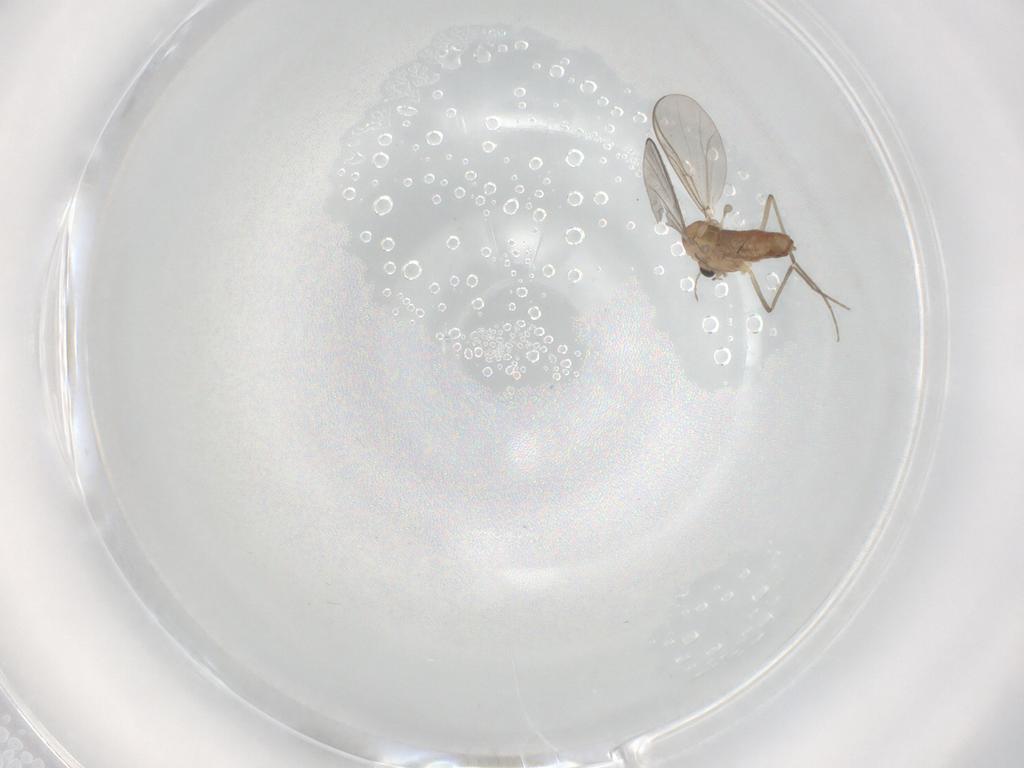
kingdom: Animalia
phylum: Arthropoda
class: Insecta
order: Diptera
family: Chironomidae
